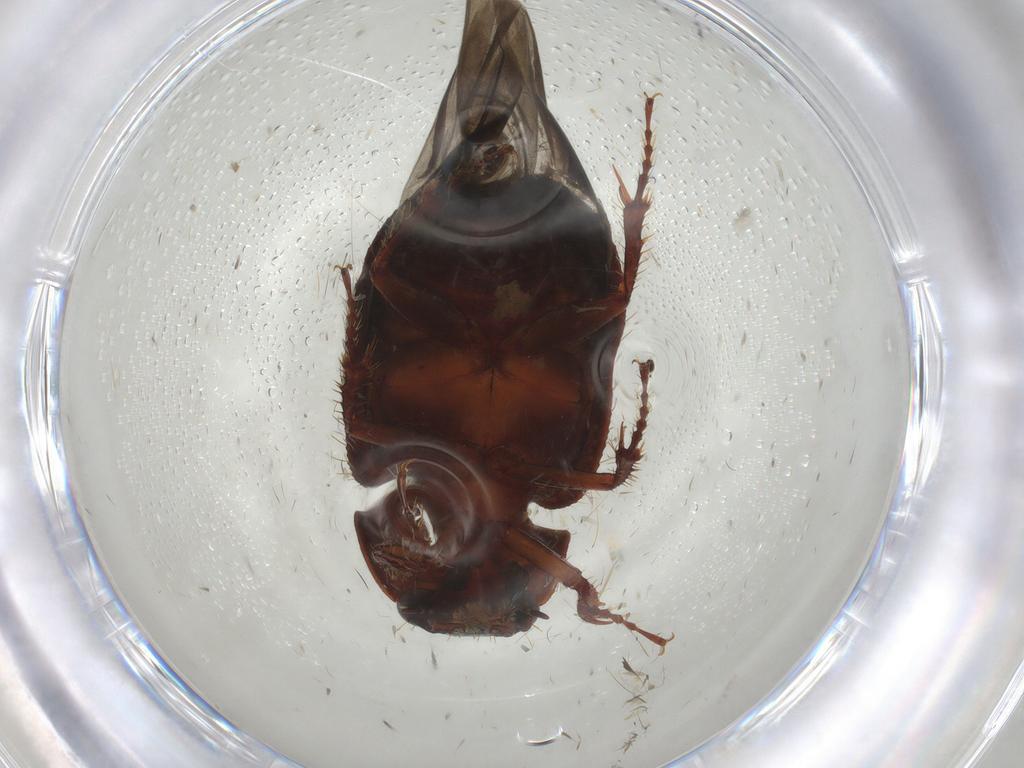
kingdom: Animalia
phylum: Arthropoda
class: Insecta
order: Coleoptera
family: Hybosoridae
